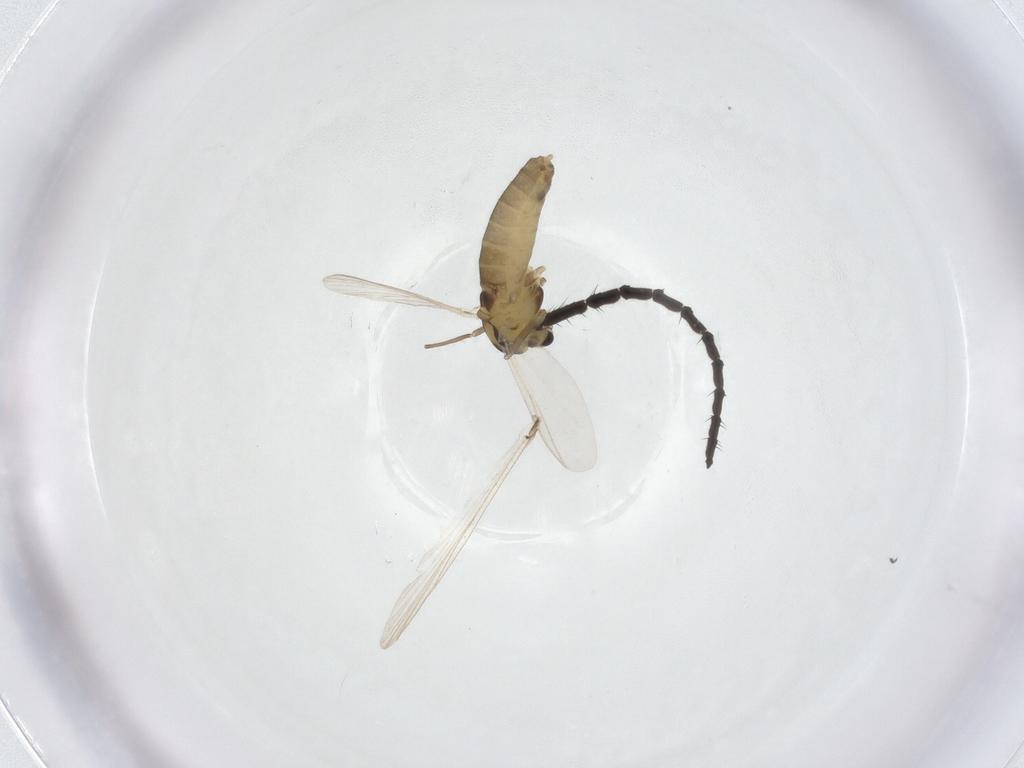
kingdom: Animalia
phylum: Arthropoda
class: Insecta
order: Diptera
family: Chironomidae
